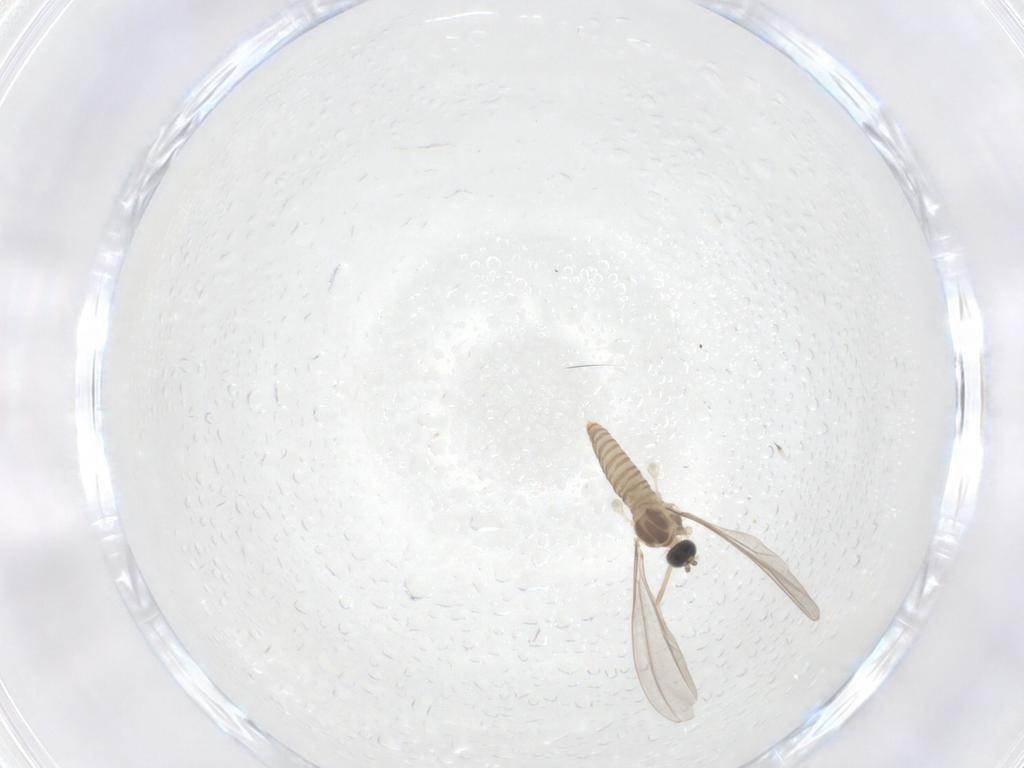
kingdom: Animalia
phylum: Arthropoda
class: Insecta
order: Diptera
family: Cecidomyiidae
